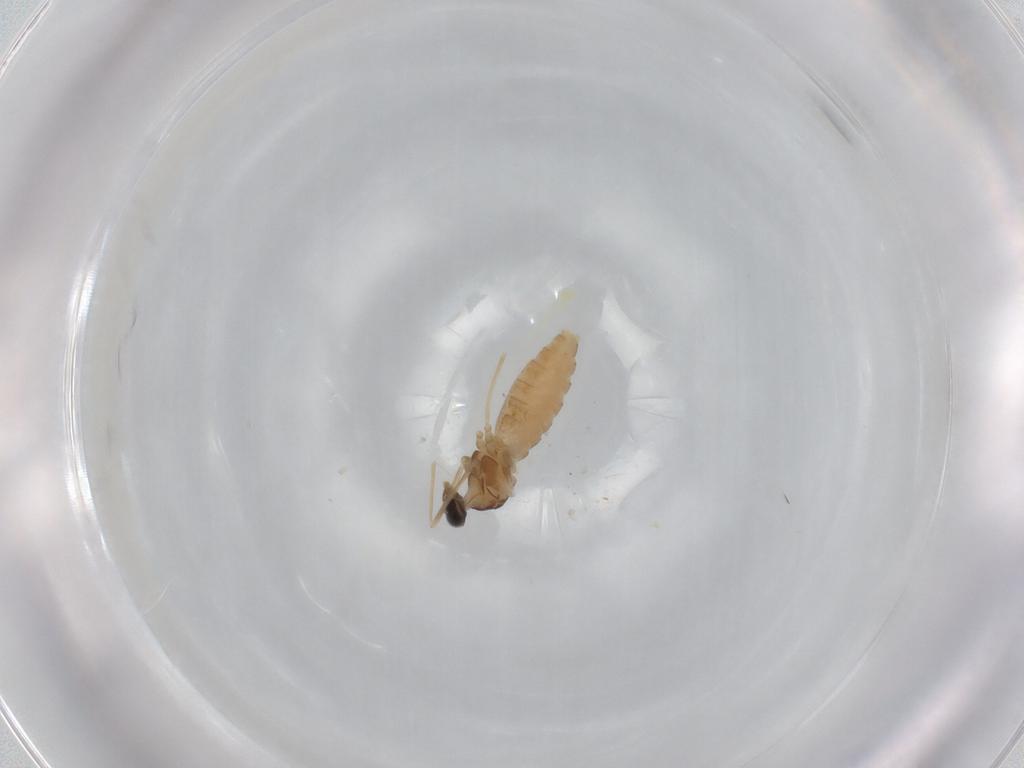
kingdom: Animalia
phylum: Arthropoda
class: Insecta
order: Diptera
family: Cecidomyiidae
